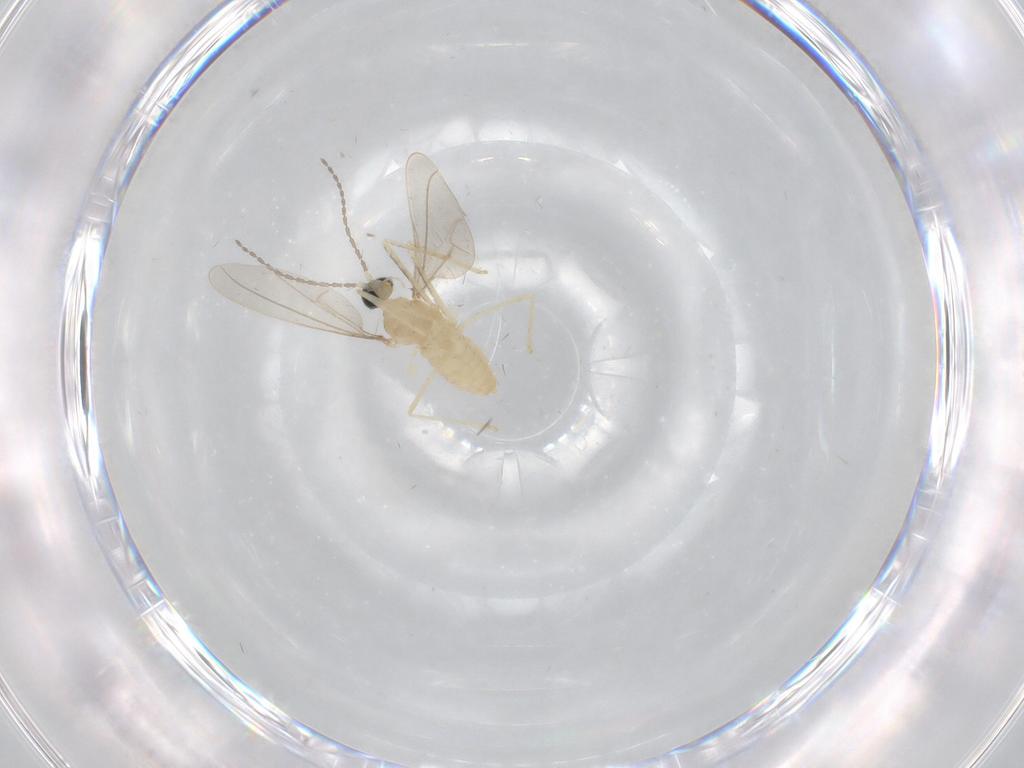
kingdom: Animalia
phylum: Arthropoda
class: Insecta
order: Diptera
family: Cecidomyiidae
